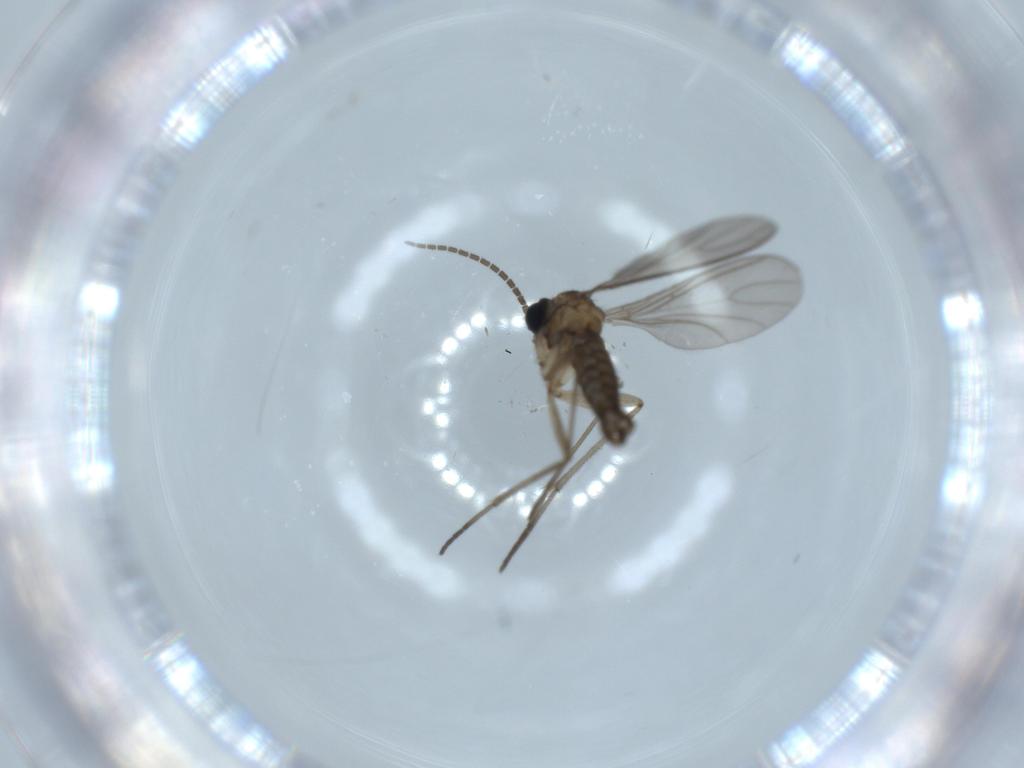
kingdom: Animalia
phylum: Arthropoda
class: Insecta
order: Diptera
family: Sciaridae
